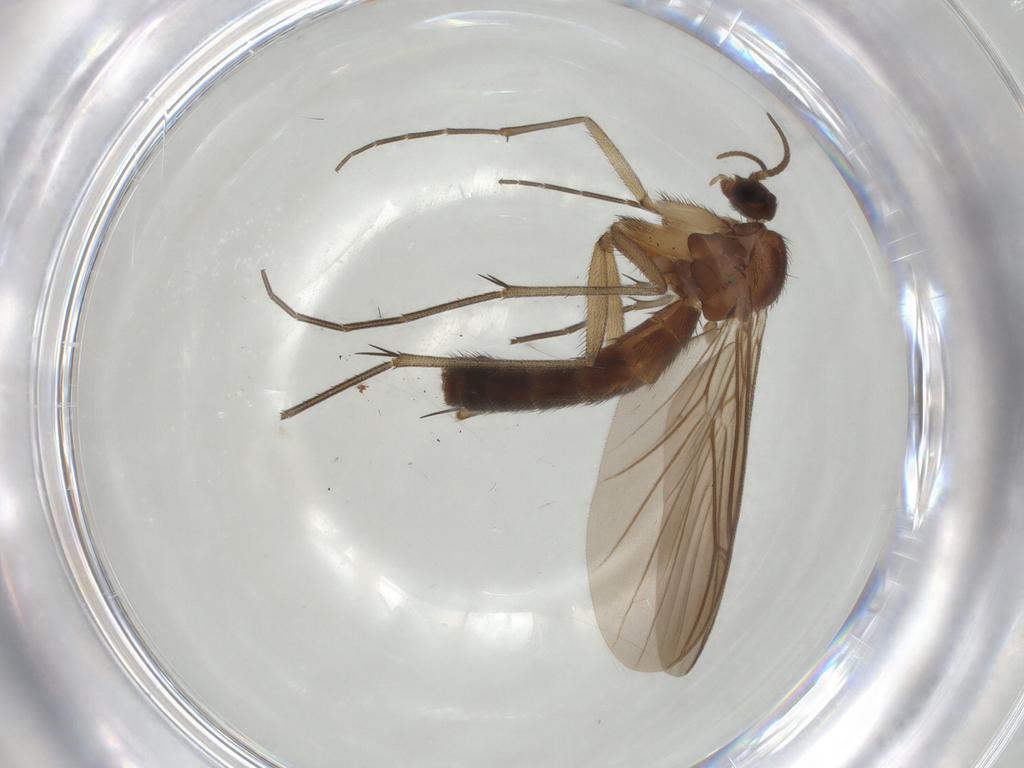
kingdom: Animalia
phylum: Arthropoda
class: Insecta
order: Diptera
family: Keroplatidae
